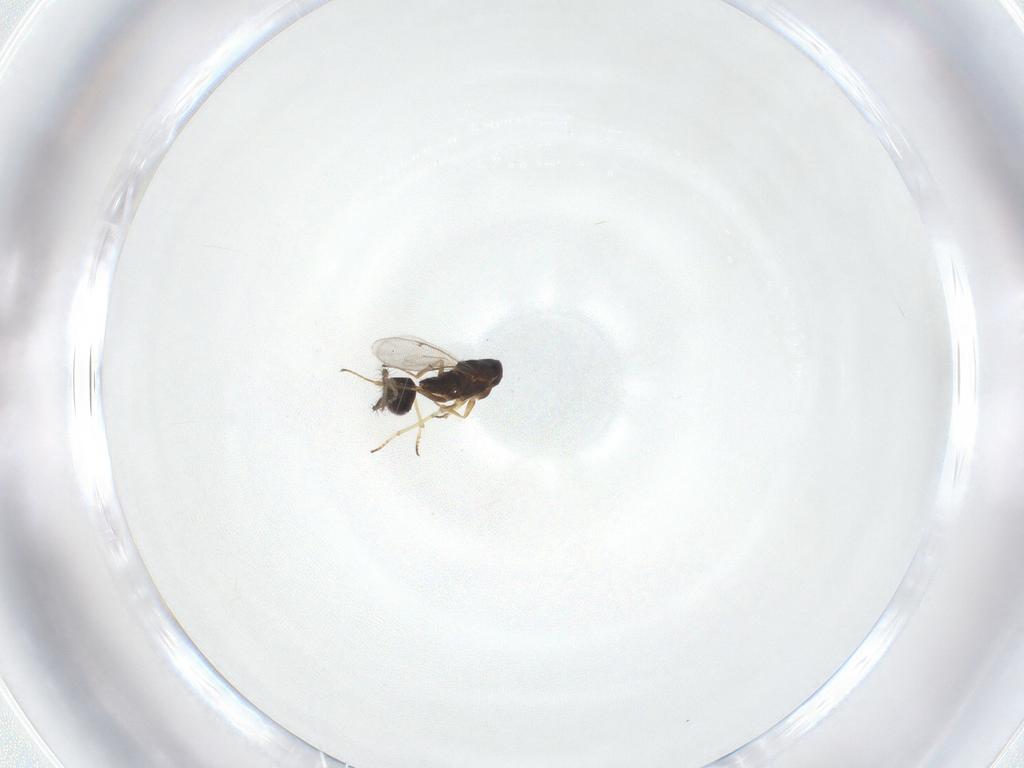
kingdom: Animalia
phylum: Arthropoda
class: Insecta
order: Hymenoptera
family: Encyrtidae
